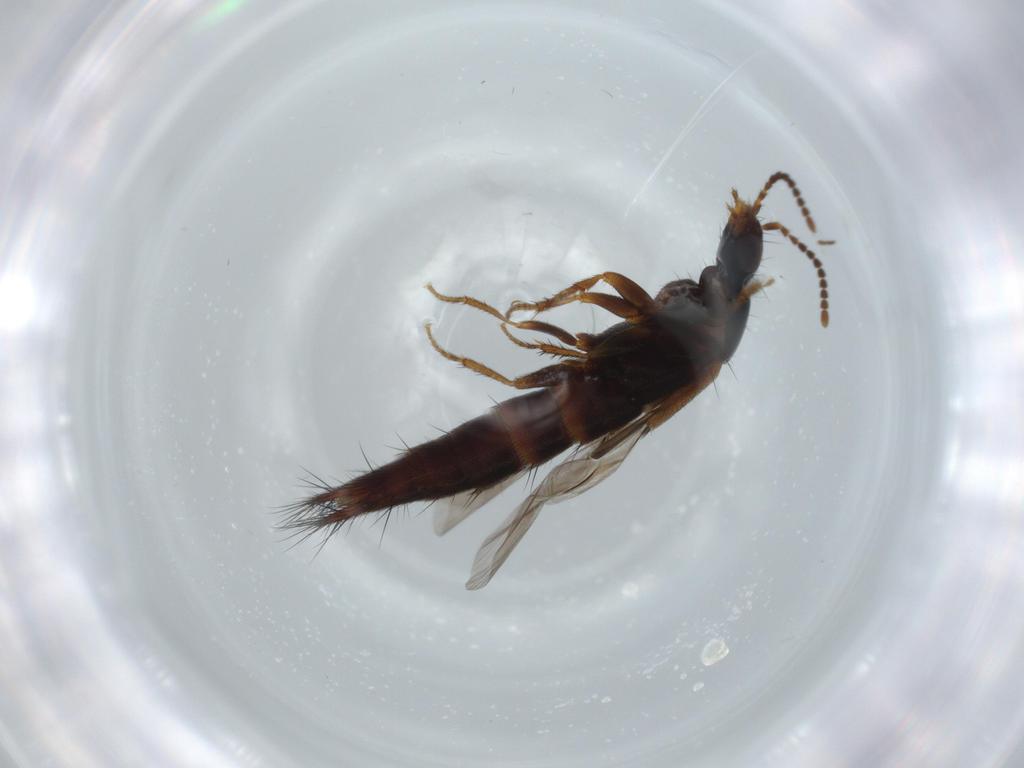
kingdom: Animalia
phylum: Arthropoda
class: Insecta
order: Coleoptera
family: Staphylinidae
